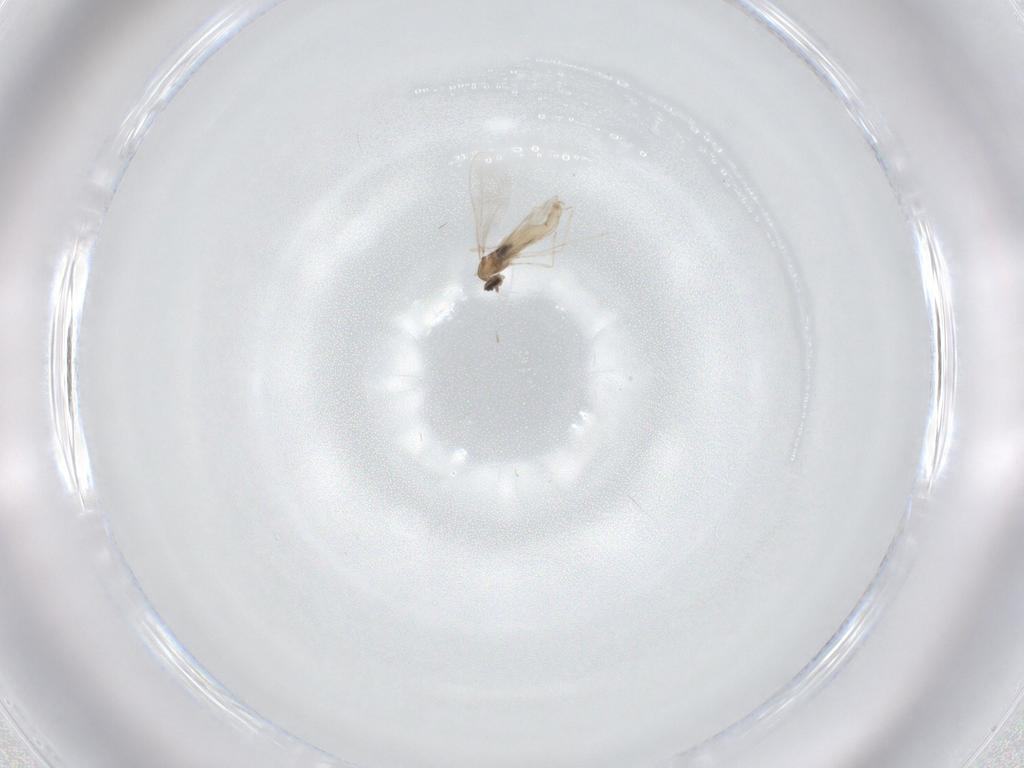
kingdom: Animalia
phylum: Arthropoda
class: Insecta
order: Diptera
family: Cecidomyiidae
